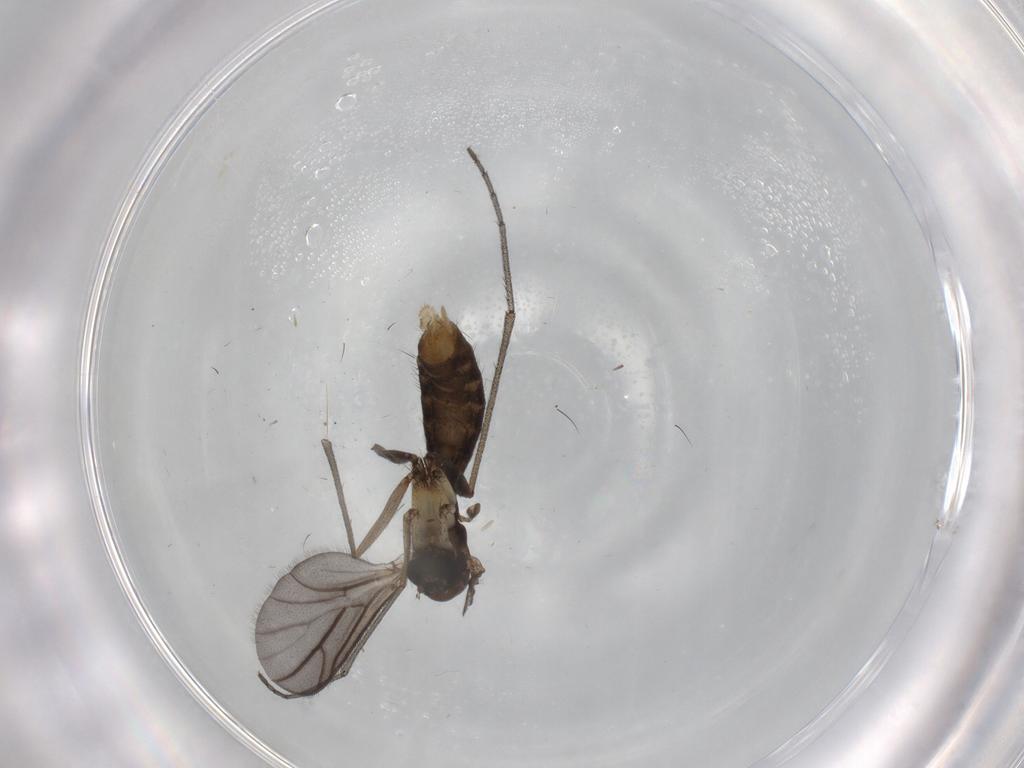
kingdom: Animalia
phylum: Arthropoda
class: Insecta
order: Diptera
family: Ditomyiidae
